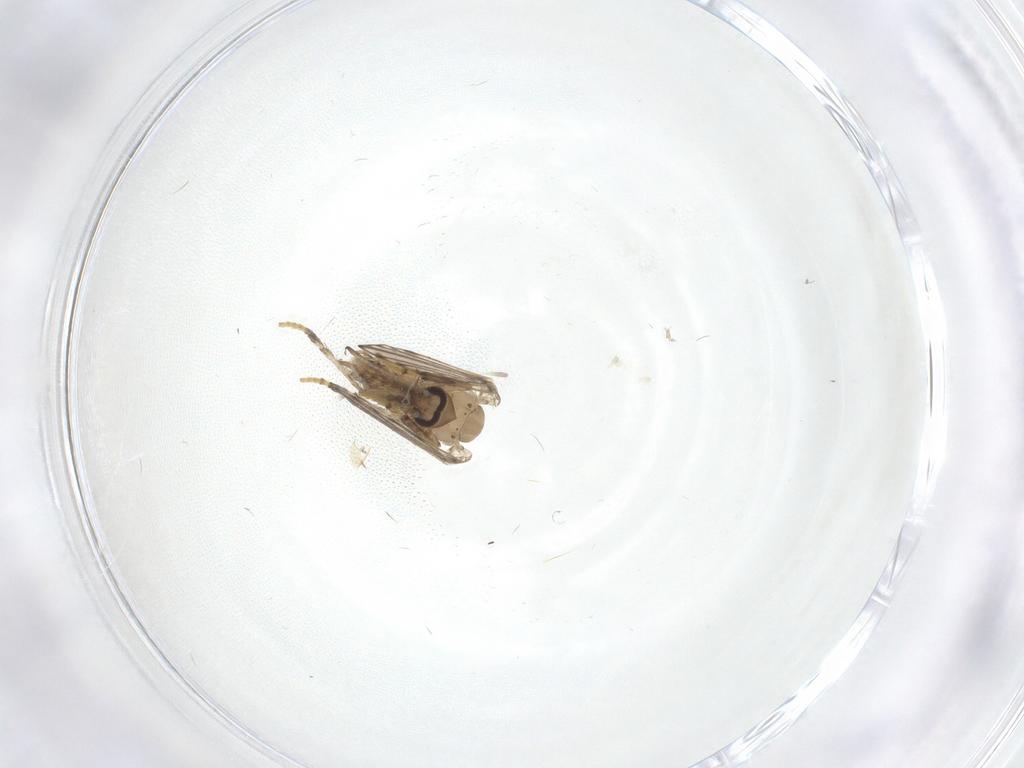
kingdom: Animalia
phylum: Arthropoda
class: Insecta
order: Diptera
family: Psychodidae
